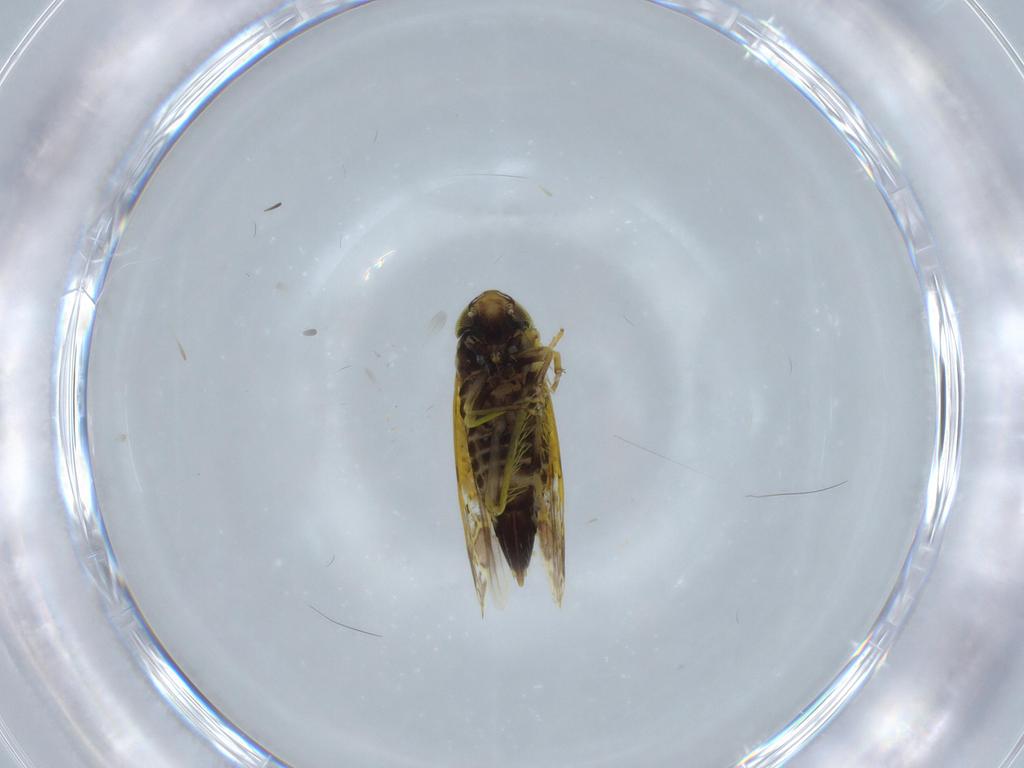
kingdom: Animalia
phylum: Arthropoda
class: Insecta
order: Hemiptera
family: Cicadellidae
